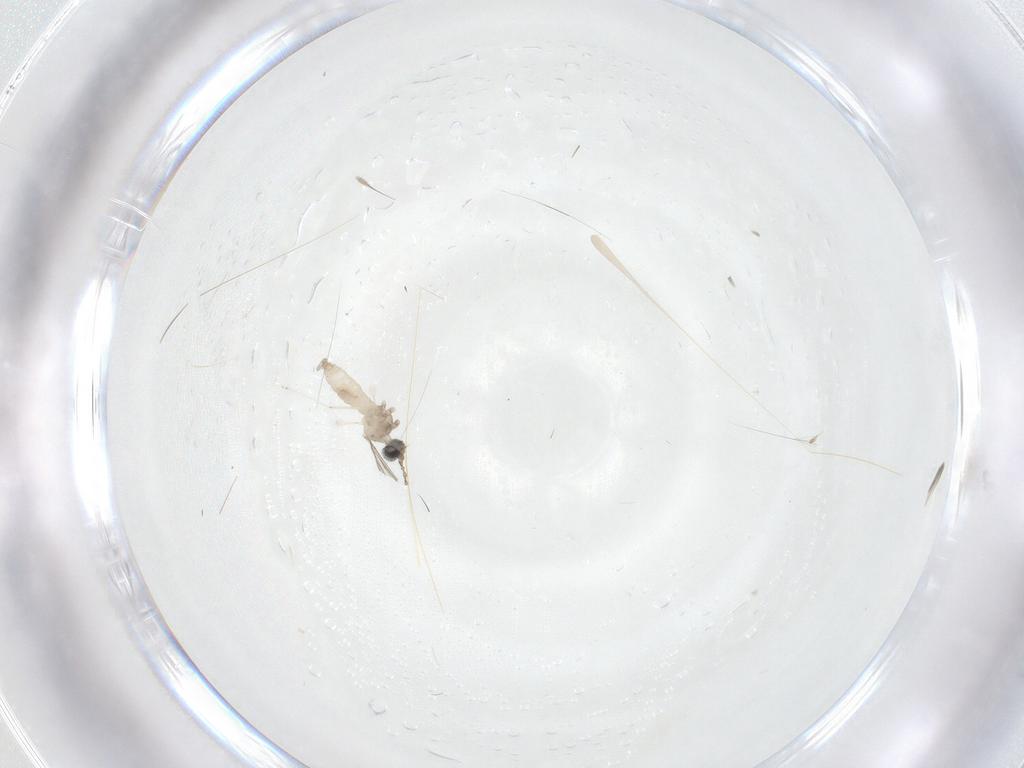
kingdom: Animalia
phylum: Arthropoda
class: Insecta
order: Diptera
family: Cecidomyiidae
